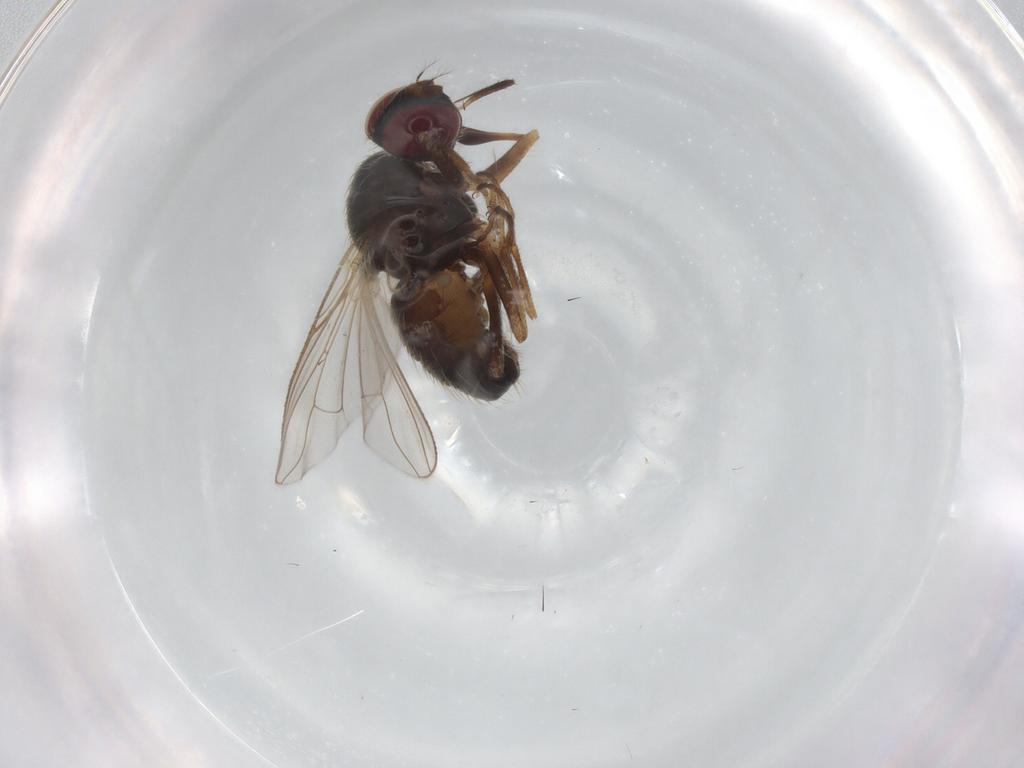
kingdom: Animalia
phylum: Arthropoda
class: Insecta
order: Diptera
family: Muscidae
